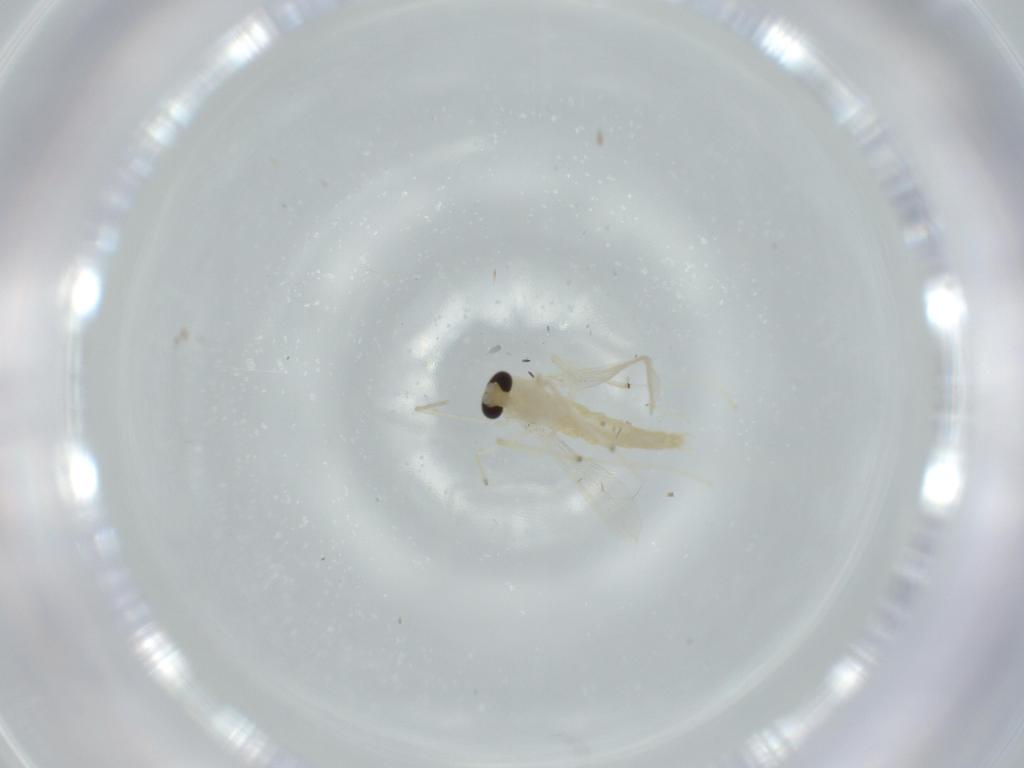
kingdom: Animalia
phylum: Arthropoda
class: Insecta
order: Diptera
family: Chironomidae
